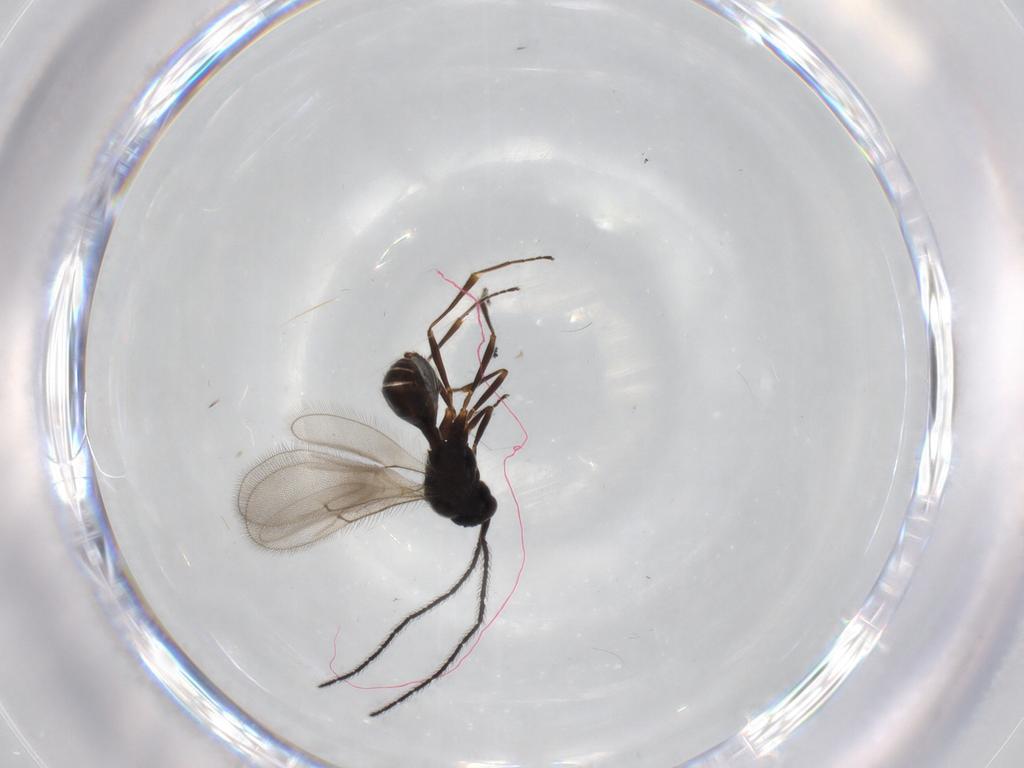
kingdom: Animalia
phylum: Arthropoda
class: Insecta
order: Hymenoptera
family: Scelionidae
